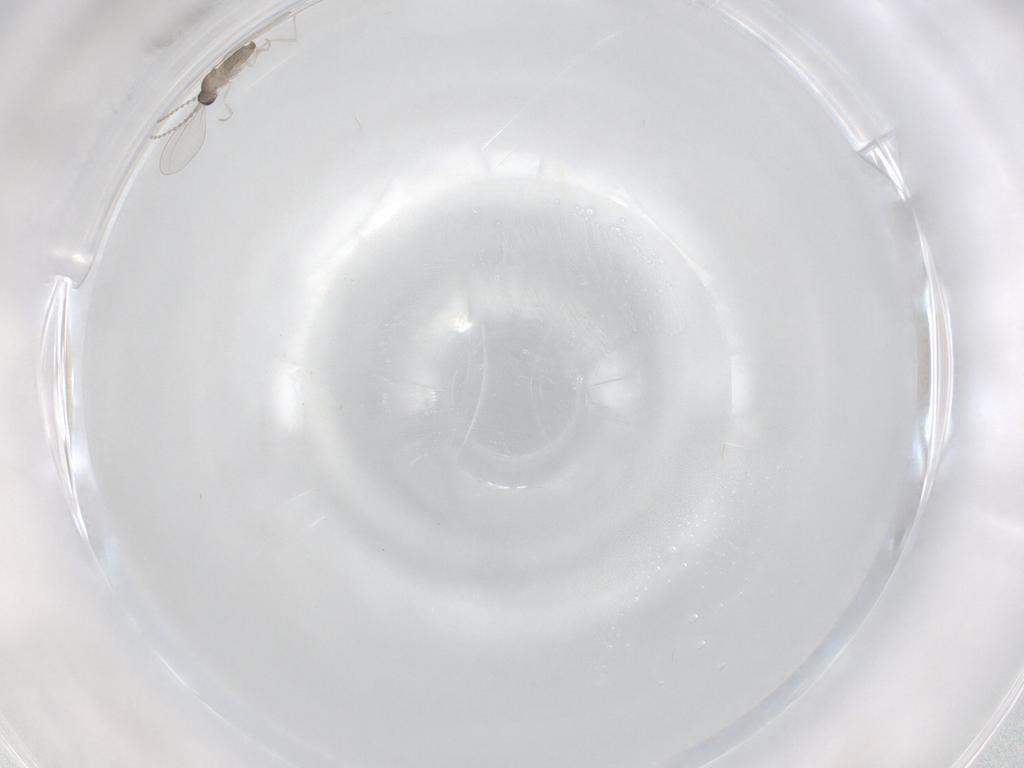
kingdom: Animalia
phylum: Arthropoda
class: Insecta
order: Diptera
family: Cecidomyiidae
